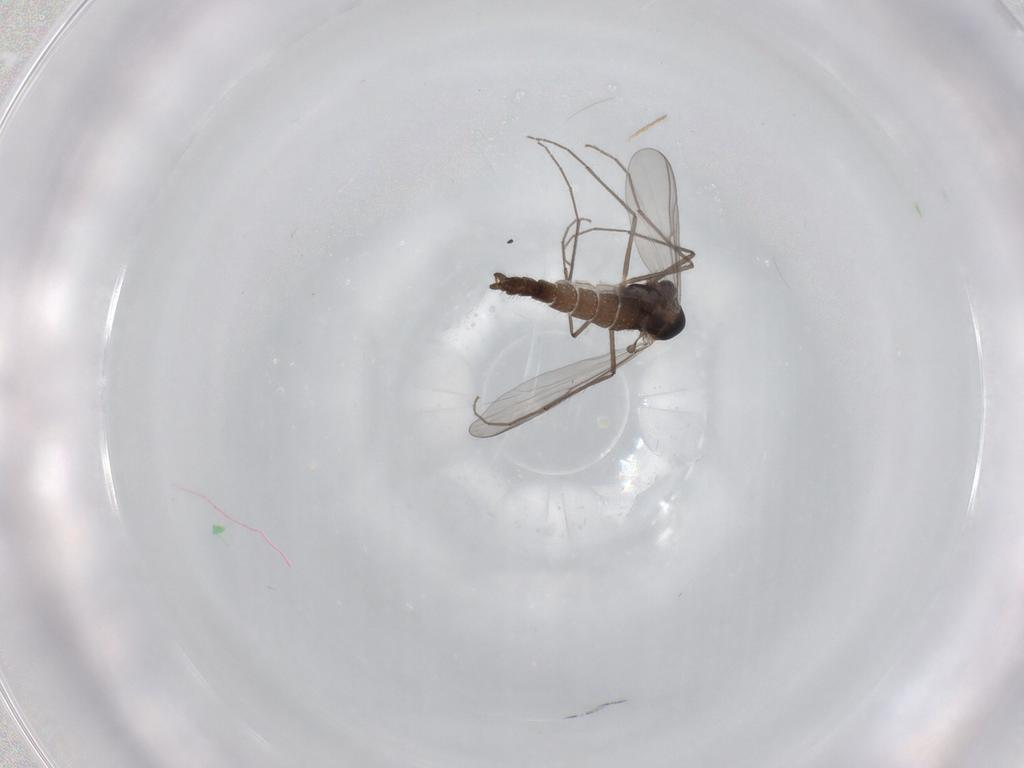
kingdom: Animalia
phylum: Arthropoda
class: Insecta
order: Diptera
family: Chironomidae
